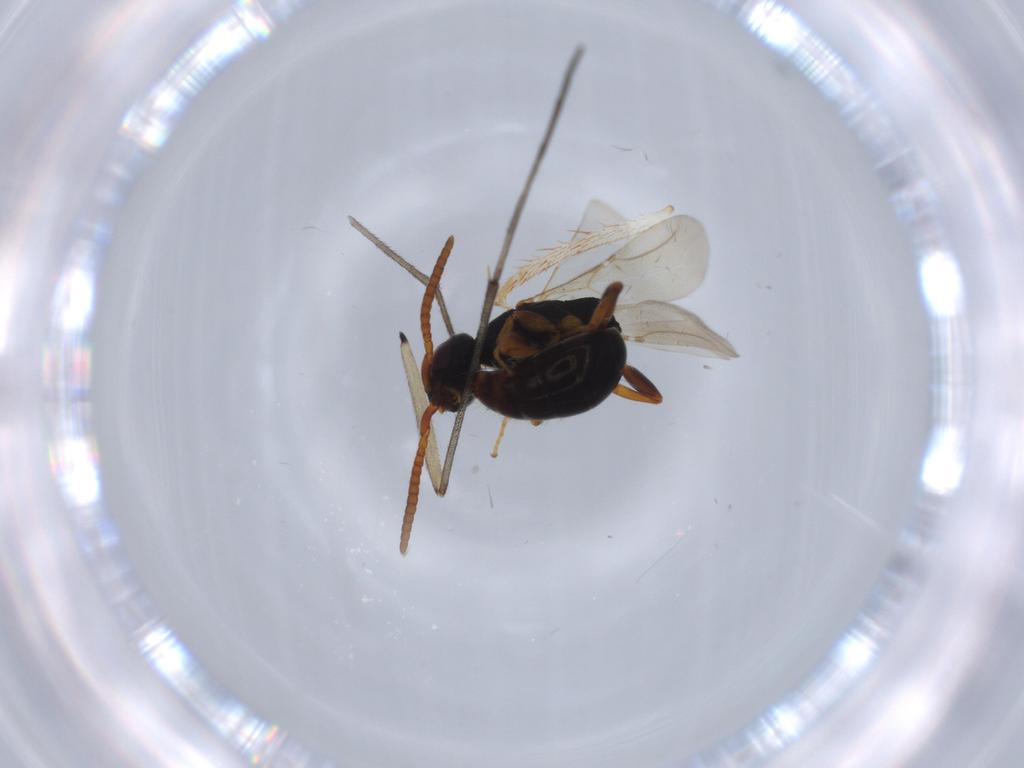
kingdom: Animalia
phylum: Arthropoda
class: Insecta
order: Hymenoptera
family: Bethylidae
